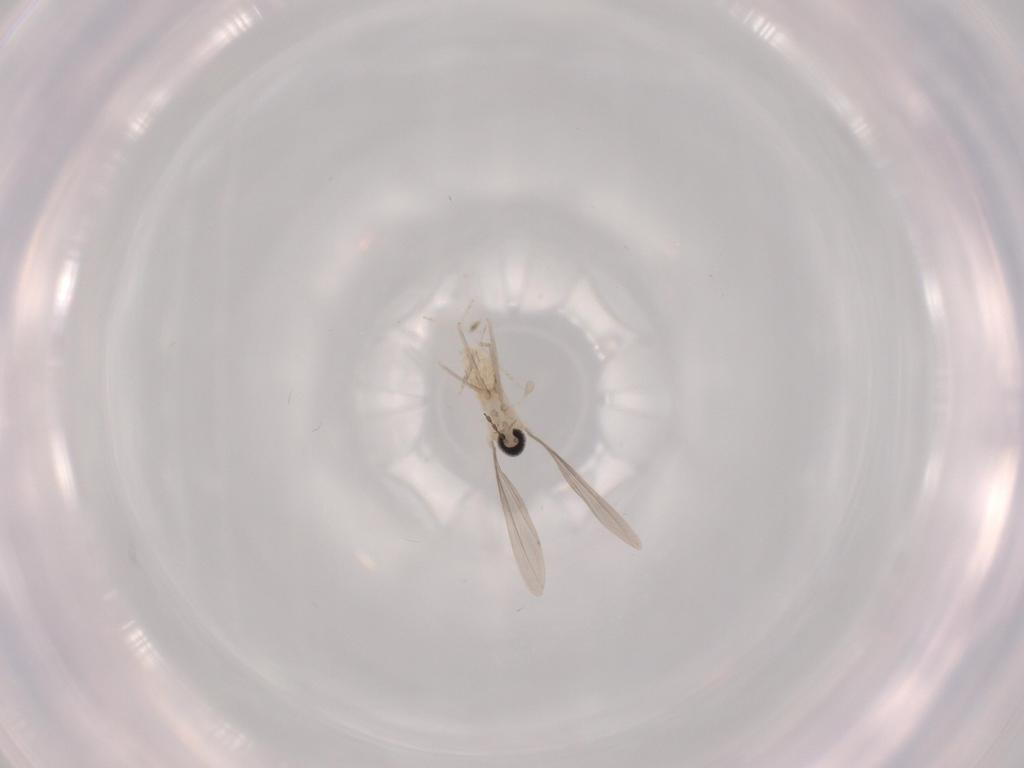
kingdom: Animalia
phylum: Arthropoda
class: Insecta
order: Diptera
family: Cecidomyiidae
